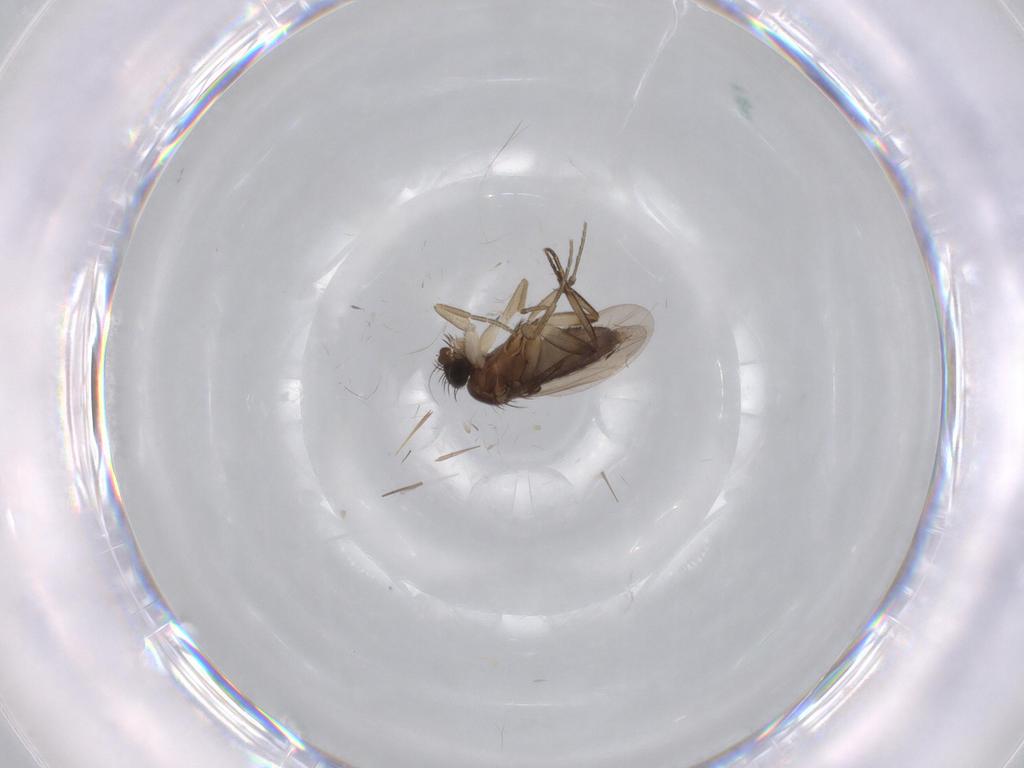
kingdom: Animalia
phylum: Arthropoda
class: Insecta
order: Diptera
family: Phoridae
